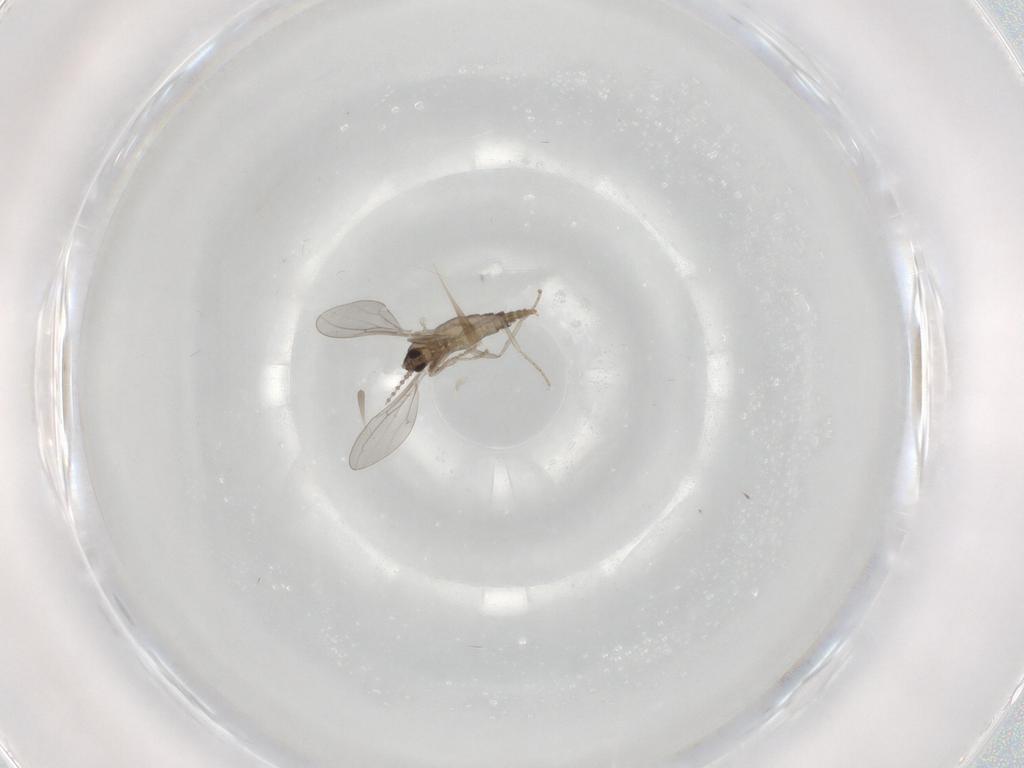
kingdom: Animalia
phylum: Arthropoda
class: Insecta
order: Diptera
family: Cecidomyiidae
